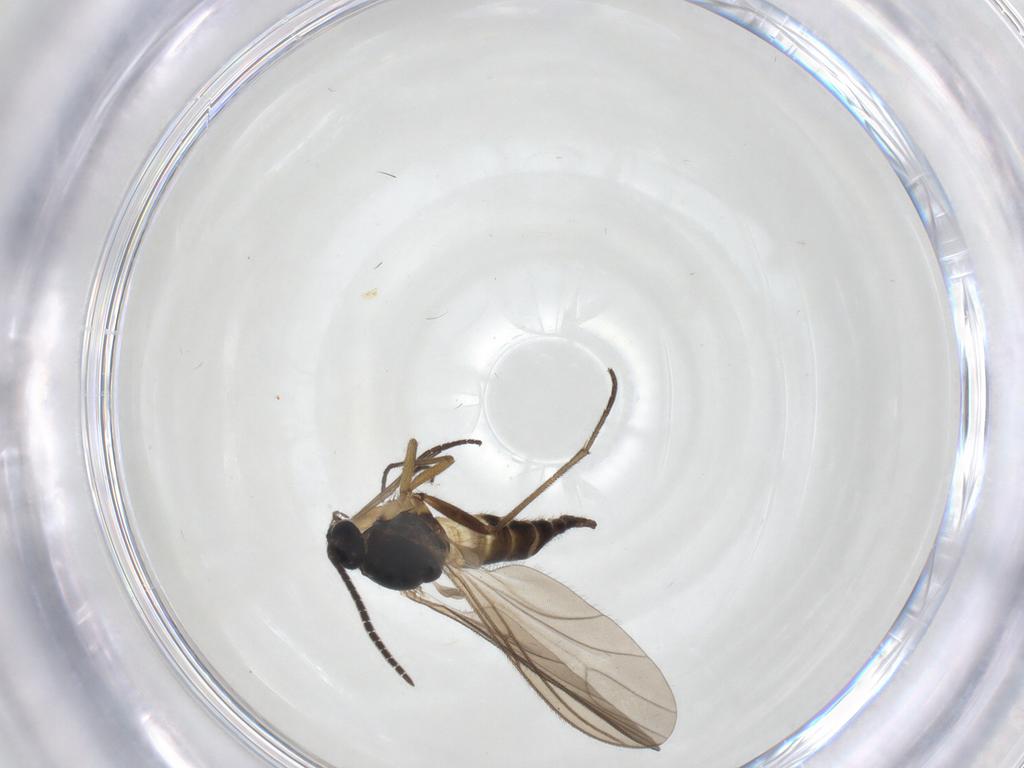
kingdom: Animalia
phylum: Arthropoda
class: Insecta
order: Diptera
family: Sciaridae
